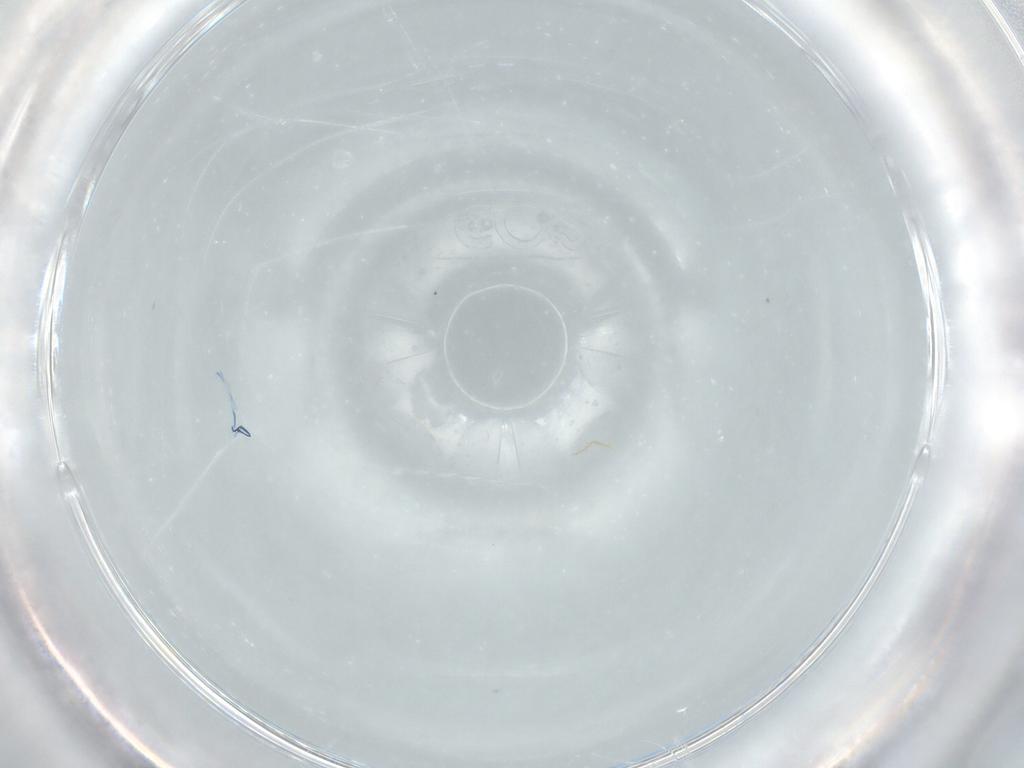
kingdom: Animalia
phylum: Arthropoda
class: Insecta
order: Diptera
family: Cecidomyiidae
